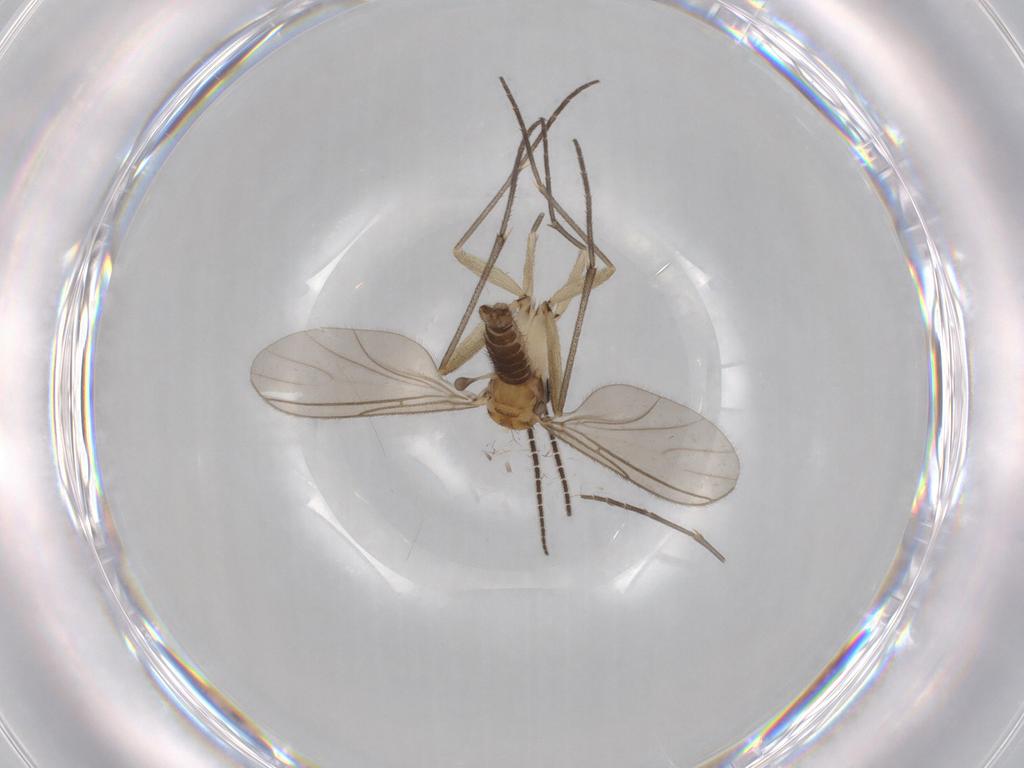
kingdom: Animalia
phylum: Arthropoda
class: Insecta
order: Diptera
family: Sciaridae
